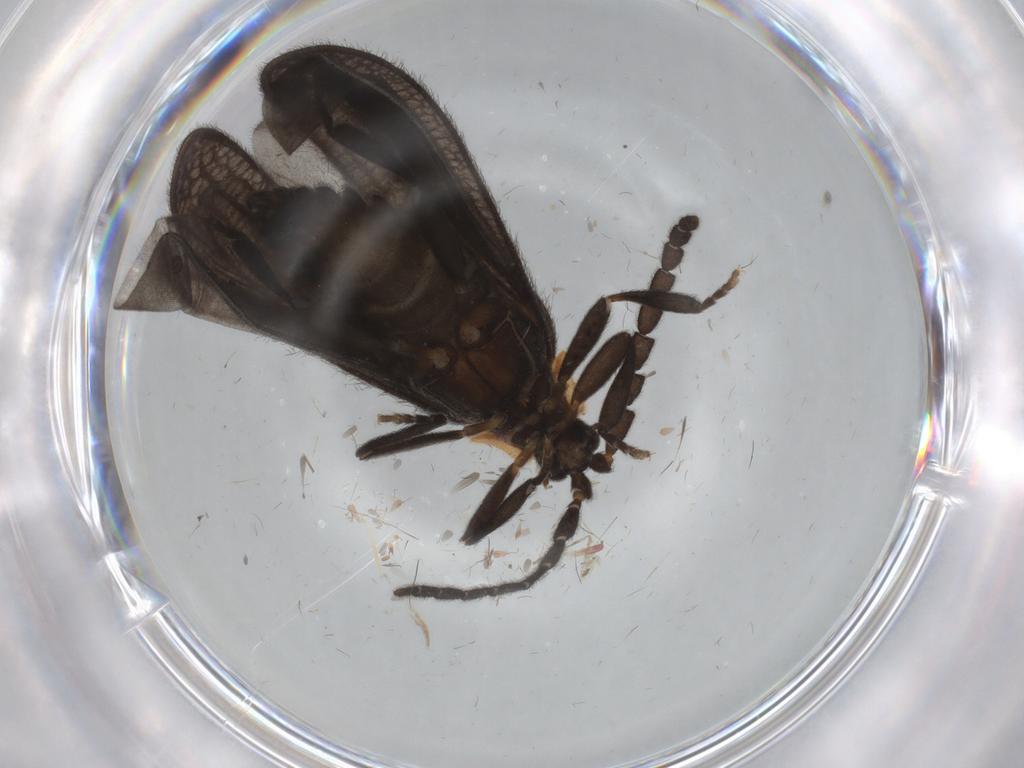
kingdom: Animalia
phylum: Arthropoda
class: Insecta
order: Coleoptera
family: Lycidae
